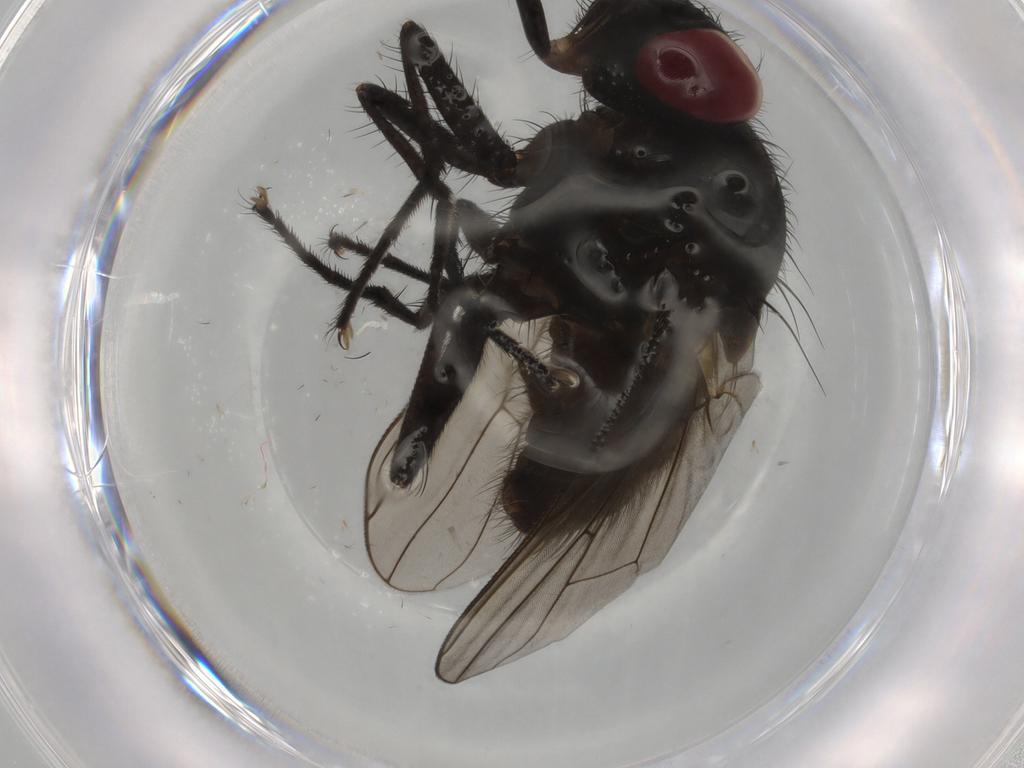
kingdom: Animalia
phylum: Arthropoda
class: Insecta
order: Diptera
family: Muscidae
